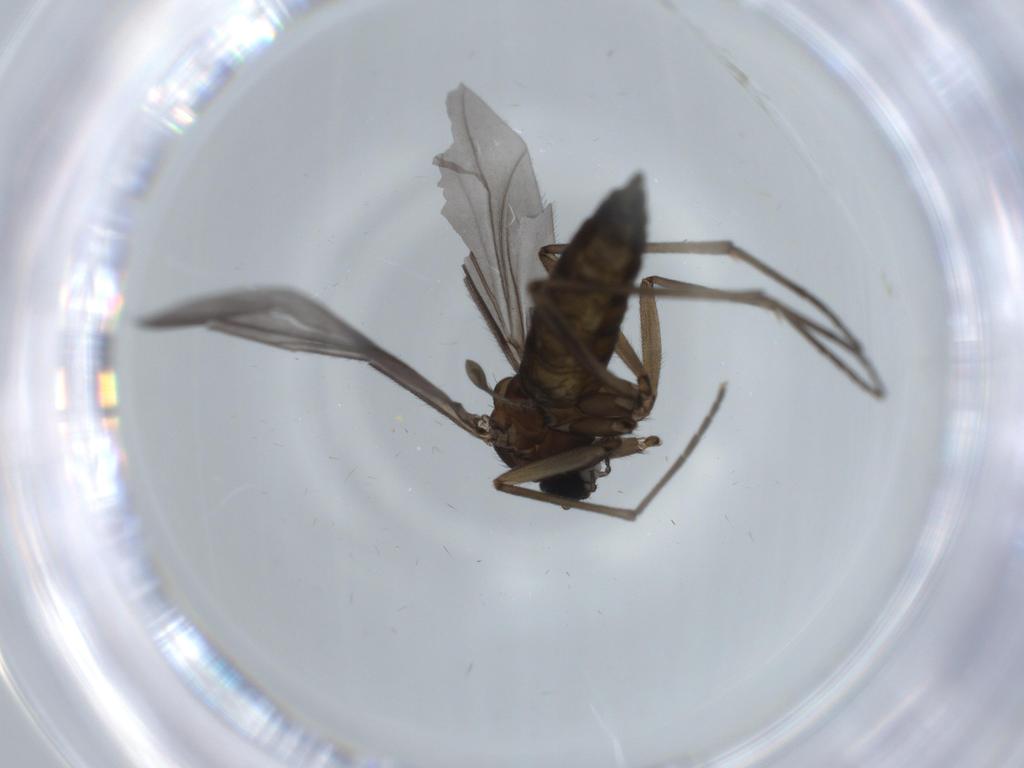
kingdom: Animalia
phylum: Arthropoda
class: Insecta
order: Diptera
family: Sciaridae
